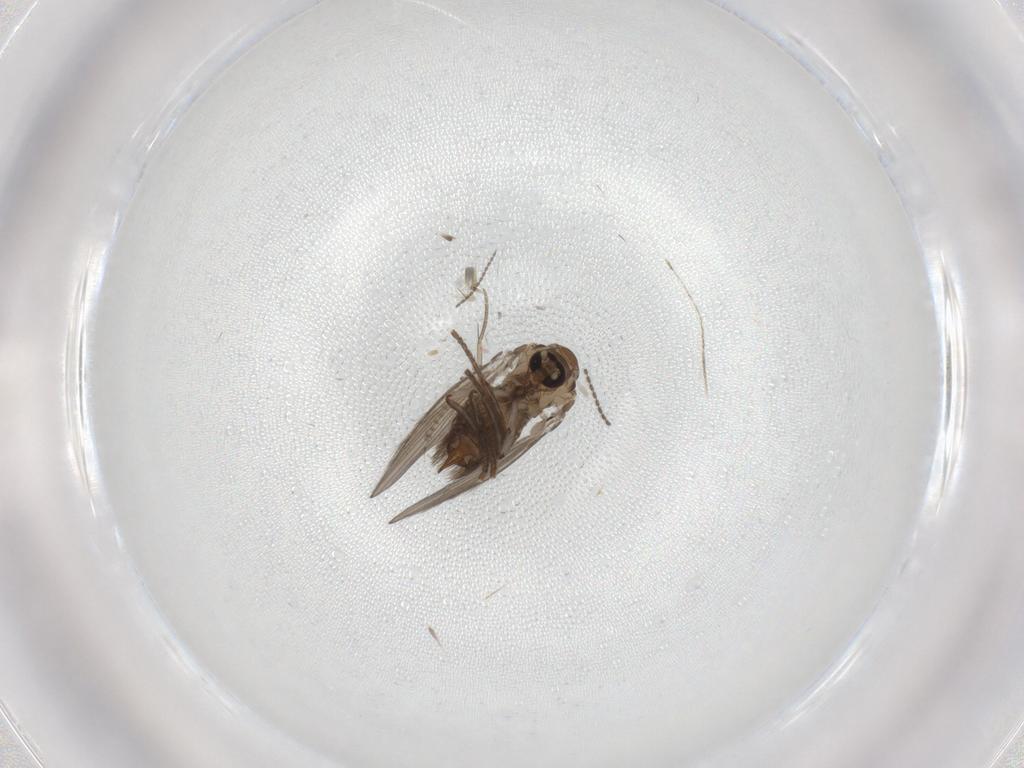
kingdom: Animalia
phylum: Arthropoda
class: Insecta
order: Diptera
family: Psychodidae
